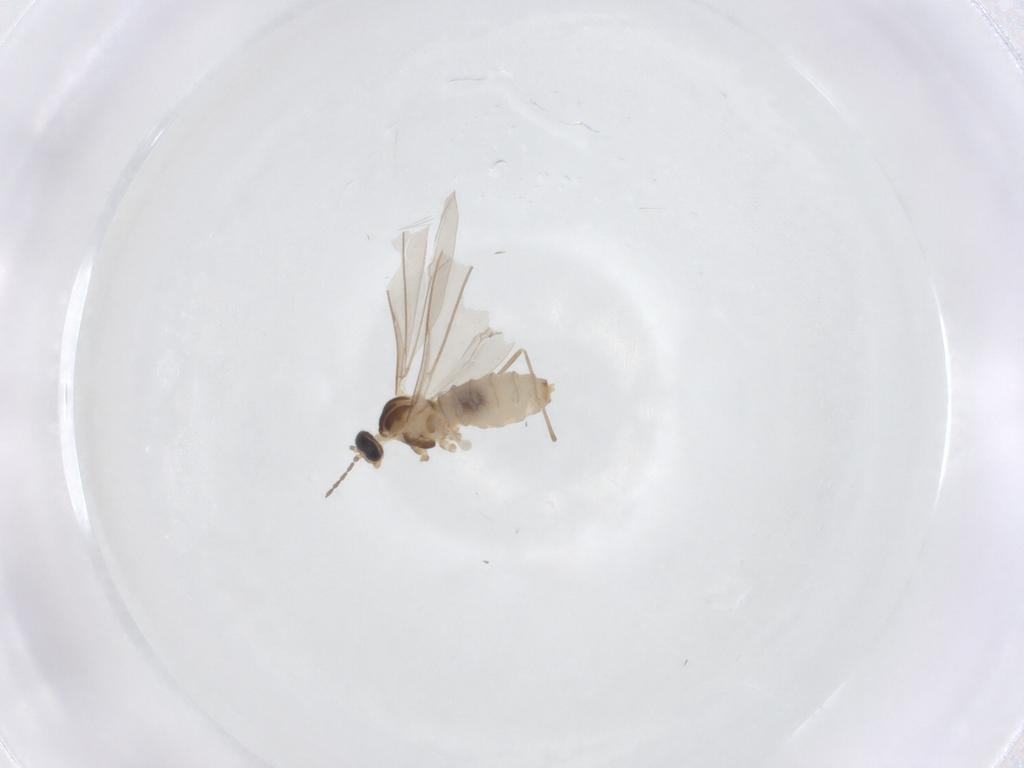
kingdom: Animalia
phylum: Arthropoda
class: Insecta
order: Diptera
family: Cecidomyiidae
